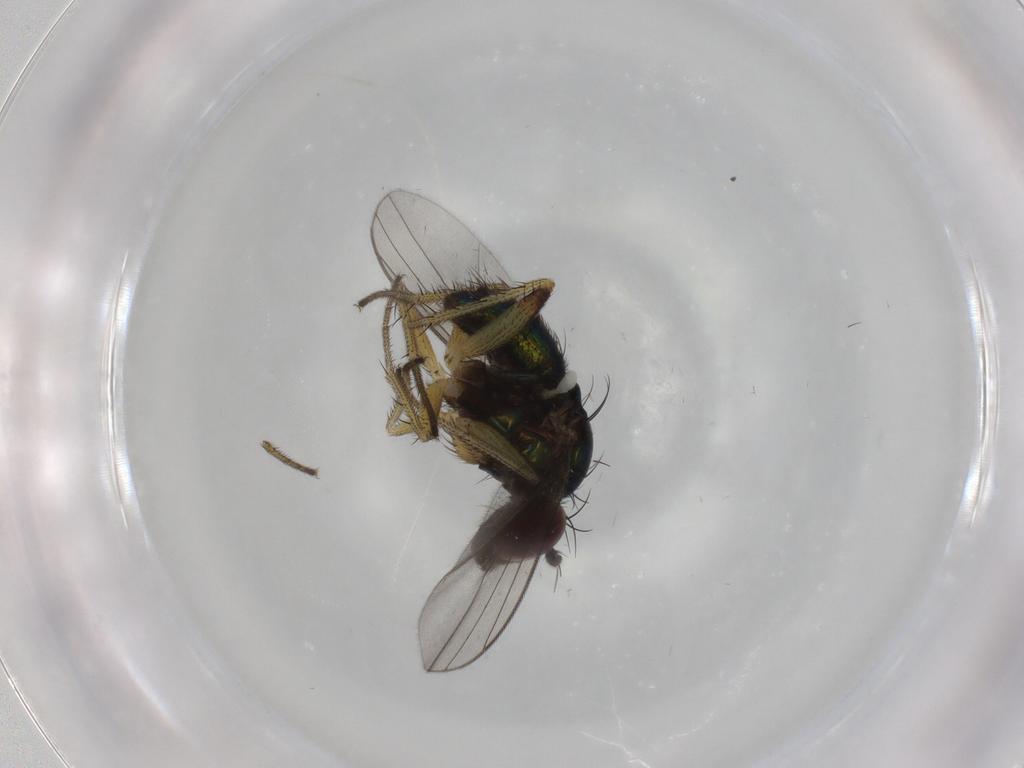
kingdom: Animalia
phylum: Arthropoda
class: Insecta
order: Diptera
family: Dolichopodidae
